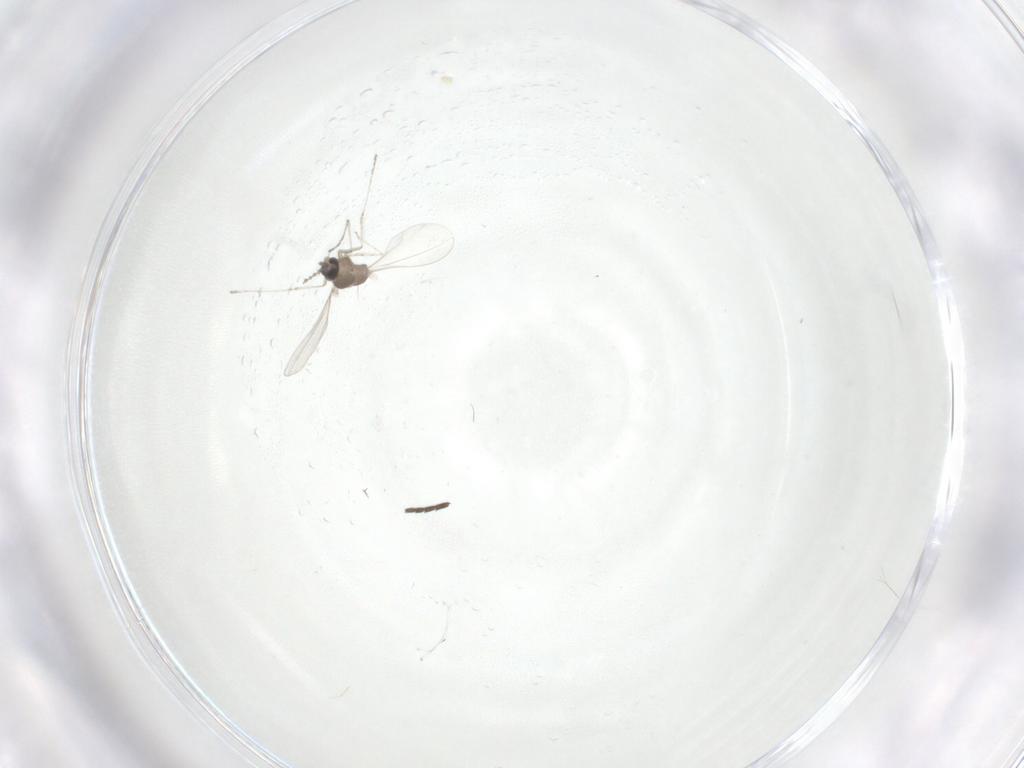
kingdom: Animalia
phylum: Arthropoda
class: Insecta
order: Diptera
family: Cecidomyiidae
